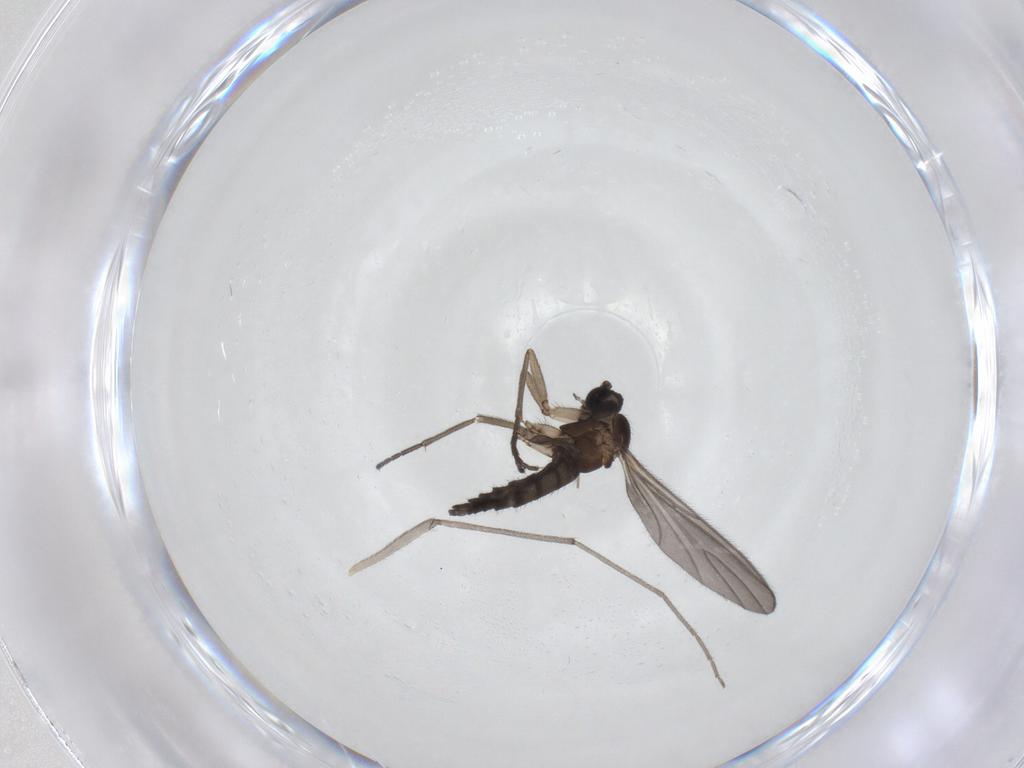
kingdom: Animalia
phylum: Arthropoda
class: Insecta
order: Diptera
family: Sciaridae
